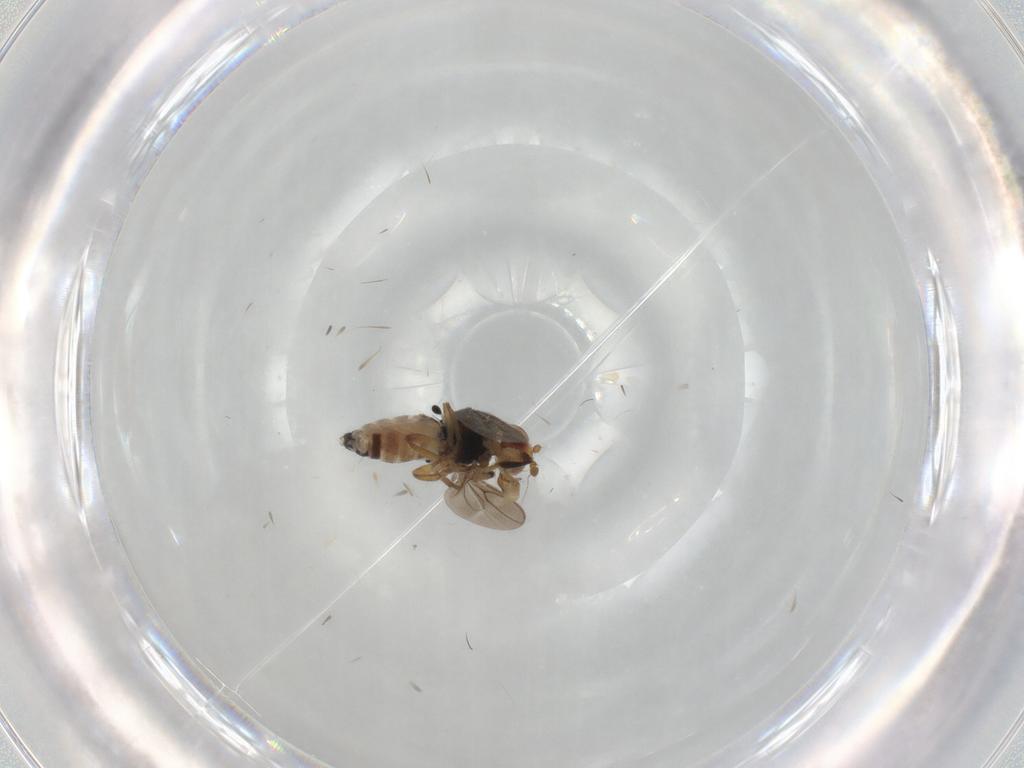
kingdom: Animalia
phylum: Arthropoda
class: Insecta
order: Diptera
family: Sphaeroceridae
